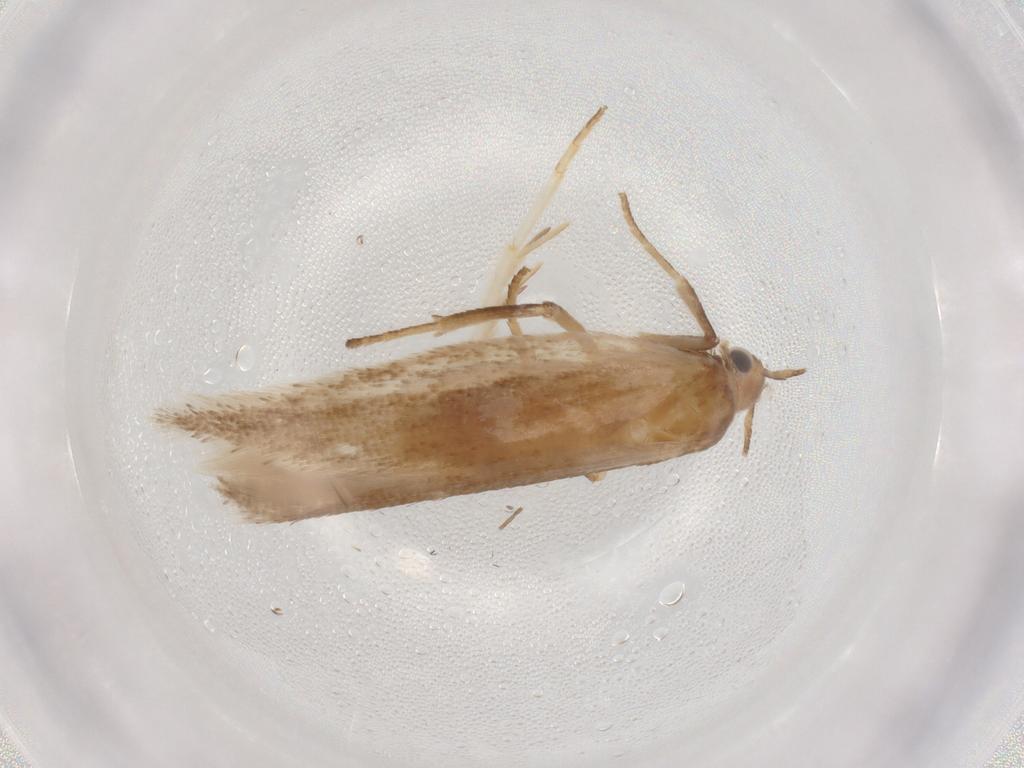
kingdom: Animalia
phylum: Arthropoda
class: Insecta
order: Lepidoptera
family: Gelechiidae
